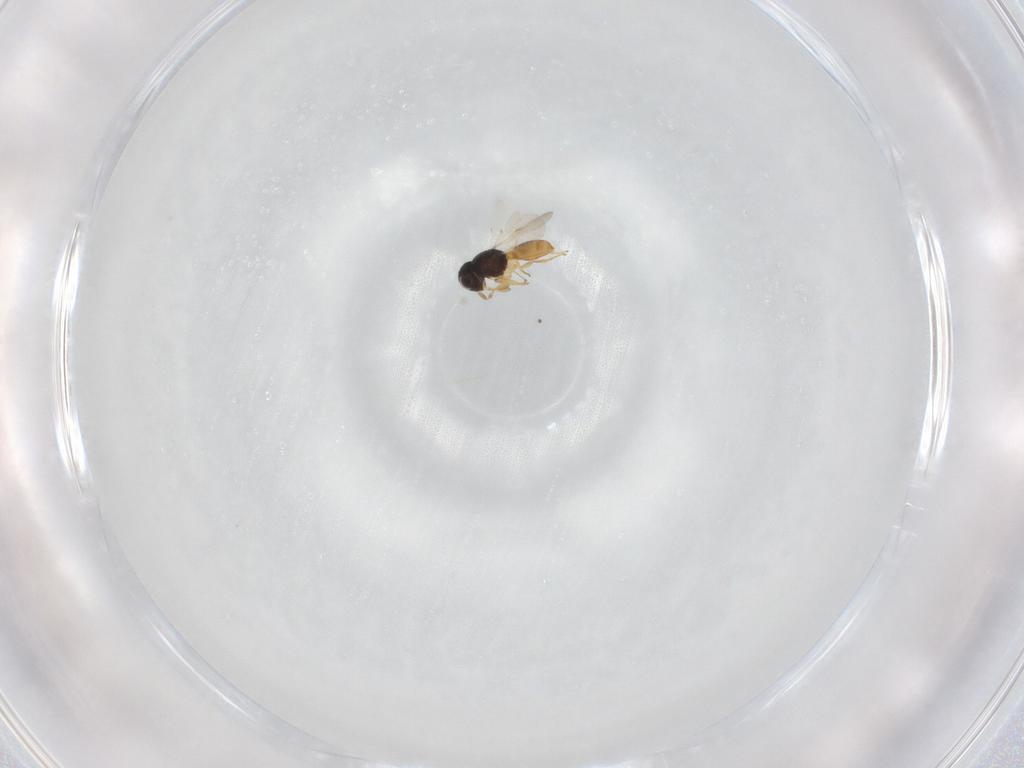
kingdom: Animalia
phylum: Arthropoda
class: Insecta
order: Hymenoptera
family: Scelionidae
